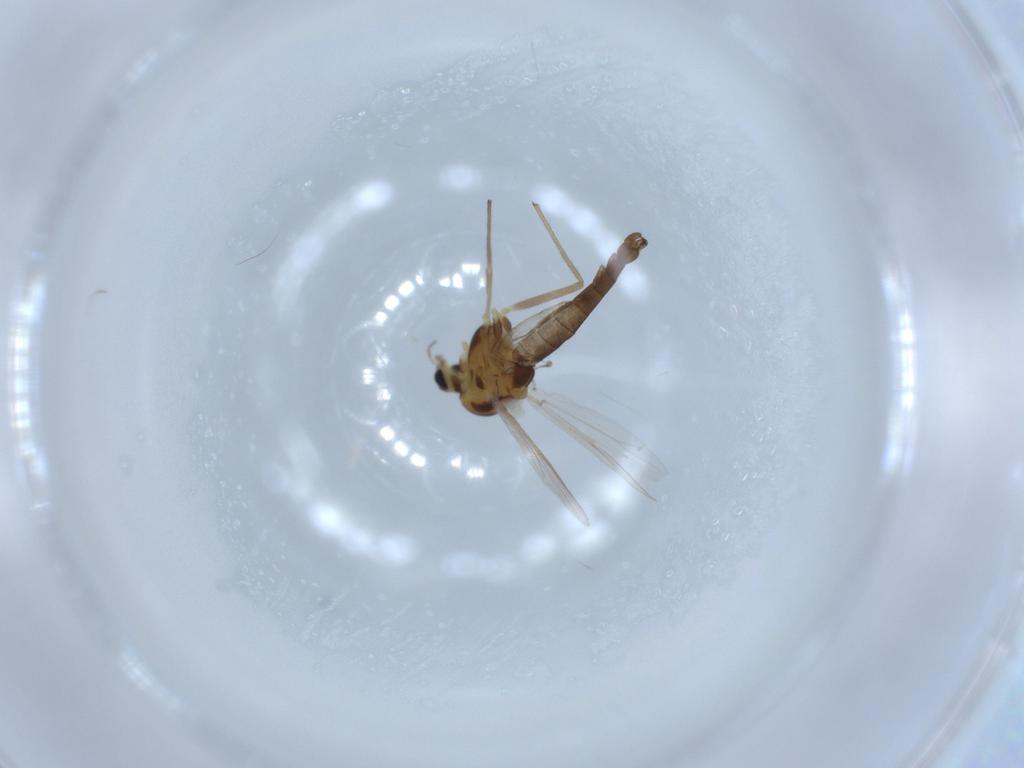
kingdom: Animalia
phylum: Arthropoda
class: Insecta
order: Diptera
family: Chironomidae
